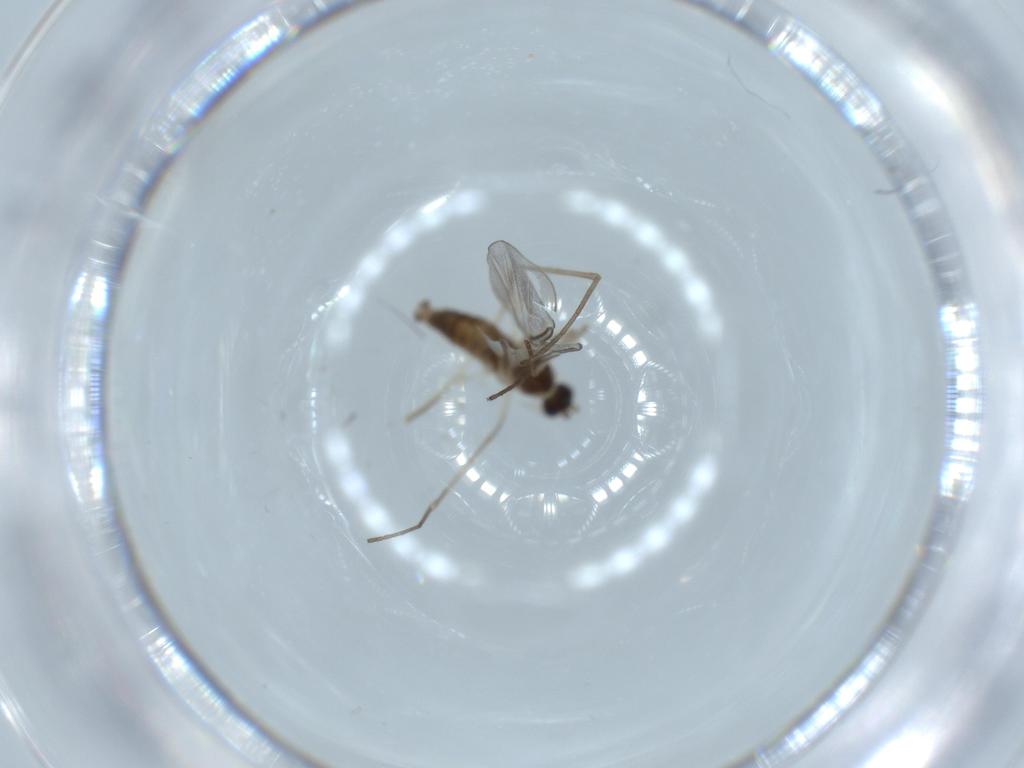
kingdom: Animalia
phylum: Arthropoda
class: Insecta
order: Diptera
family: Cecidomyiidae
